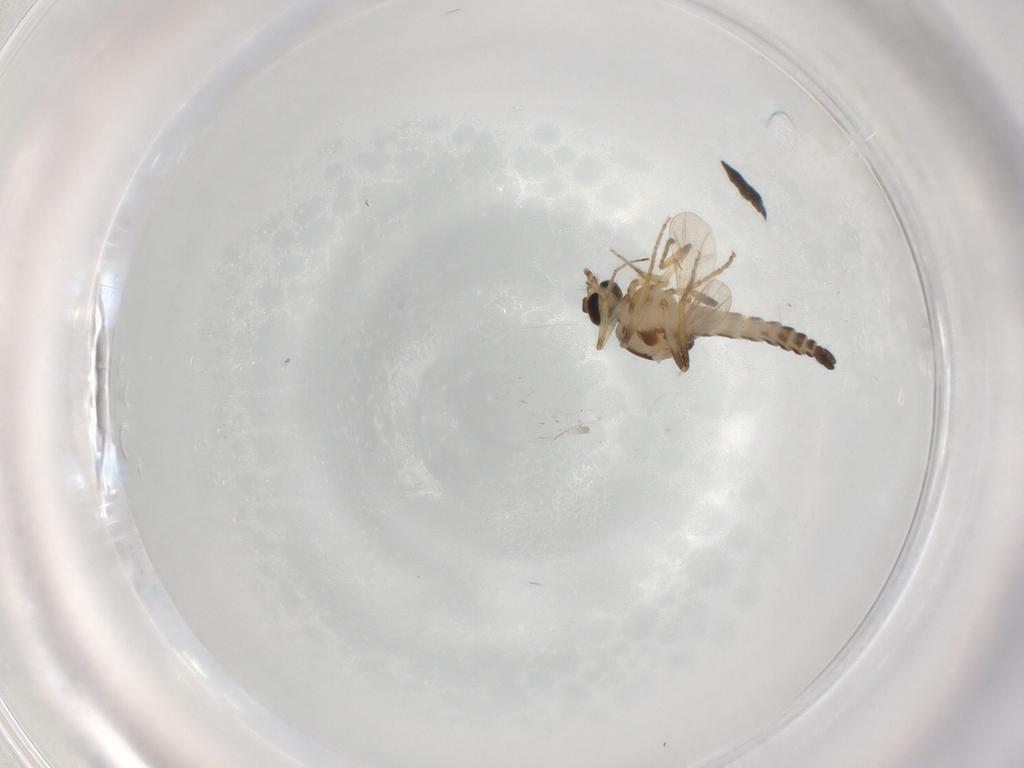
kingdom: Animalia
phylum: Arthropoda
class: Insecta
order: Diptera
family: Ceratopogonidae
